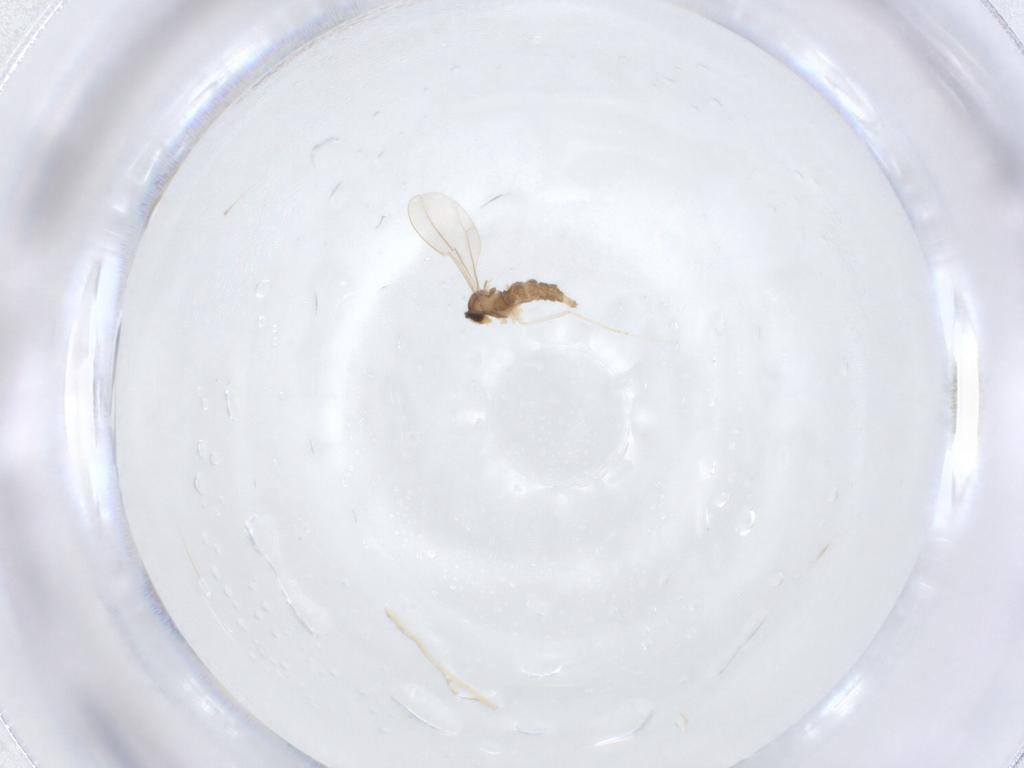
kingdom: Animalia
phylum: Arthropoda
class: Insecta
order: Diptera
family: Cecidomyiidae
